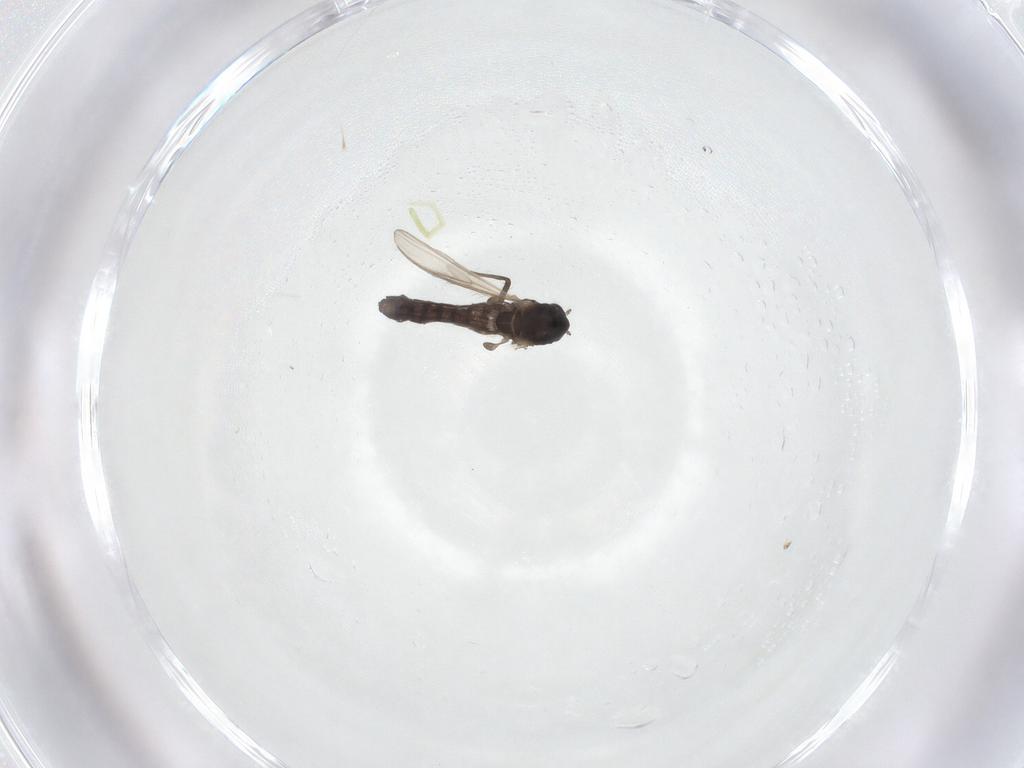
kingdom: Animalia
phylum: Arthropoda
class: Insecta
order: Diptera
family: Chironomidae
